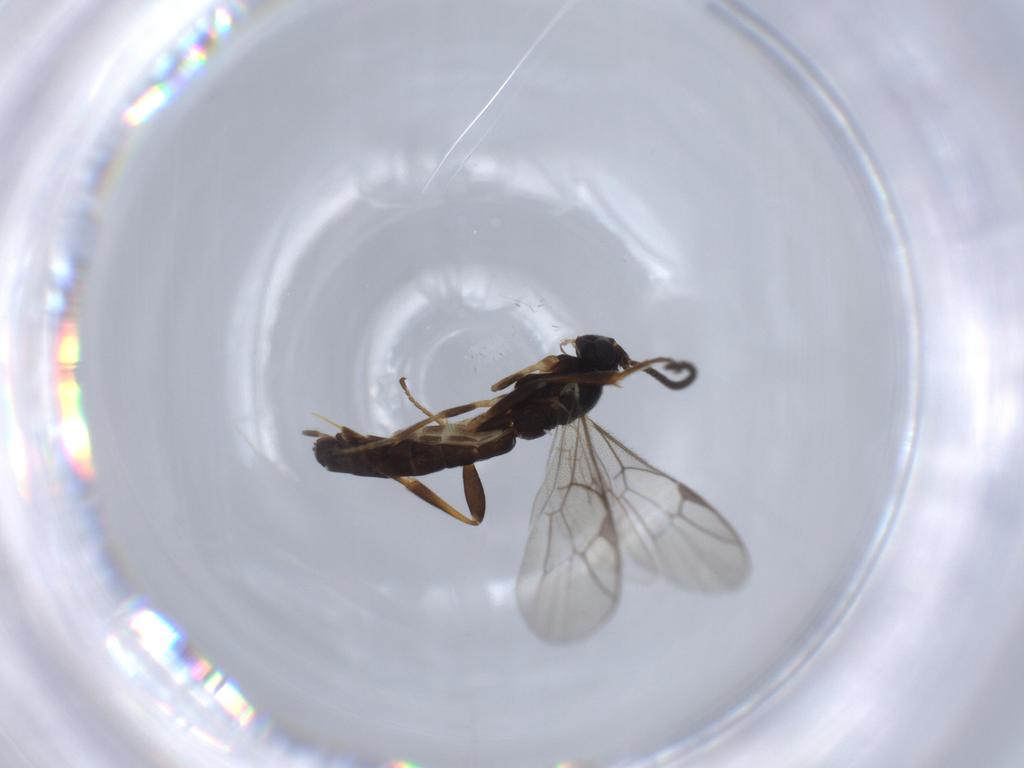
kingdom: Animalia
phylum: Arthropoda
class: Insecta
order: Hymenoptera
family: Ichneumonidae
